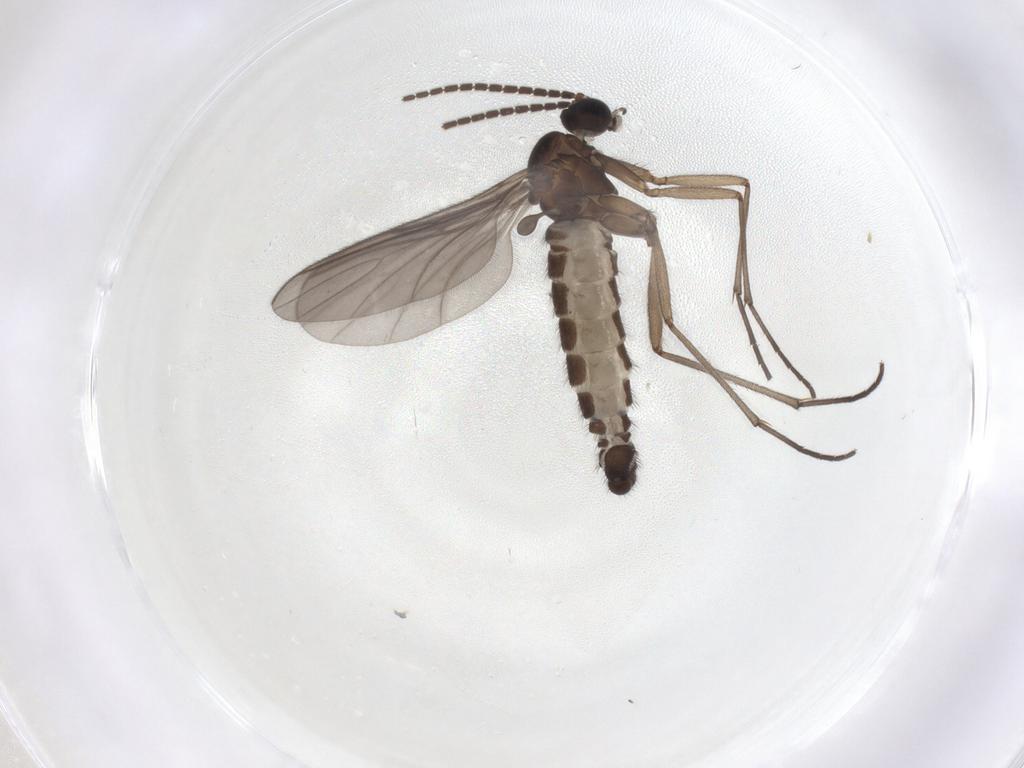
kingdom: Animalia
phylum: Arthropoda
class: Insecta
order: Diptera
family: Sciaridae
